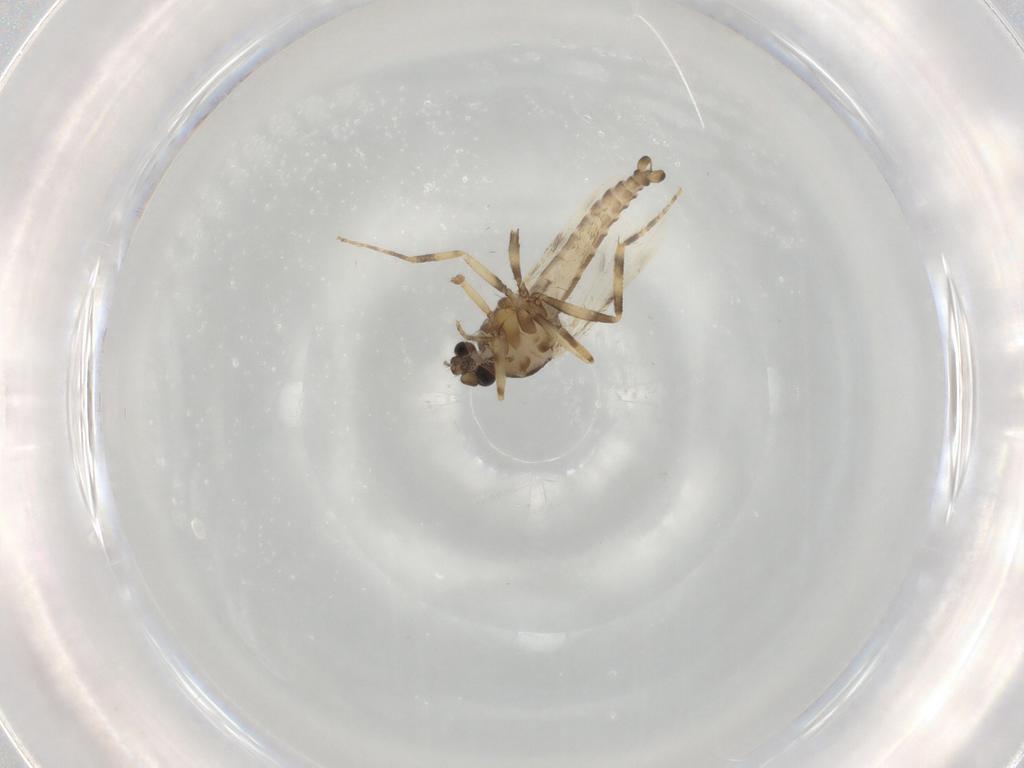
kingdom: Animalia
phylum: Arthropoda
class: Insecta
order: Diptera
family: Ceratopogonidae
